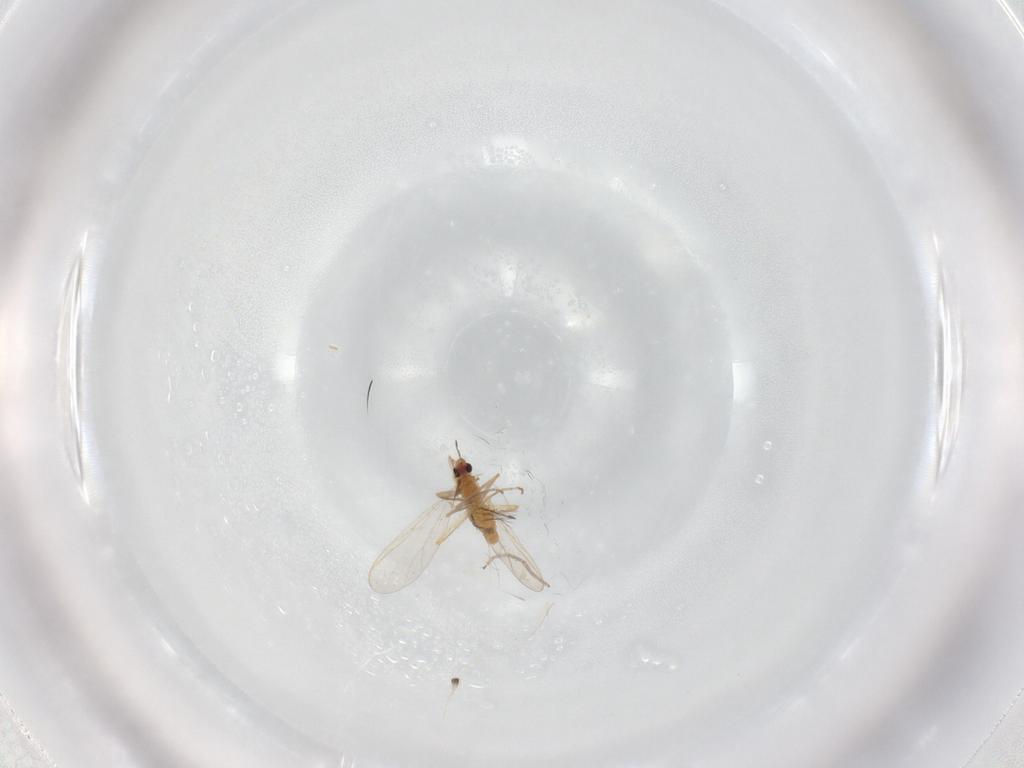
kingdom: Animalia
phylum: Arthropoda
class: Insecta
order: Diptera
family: Chironomidae
